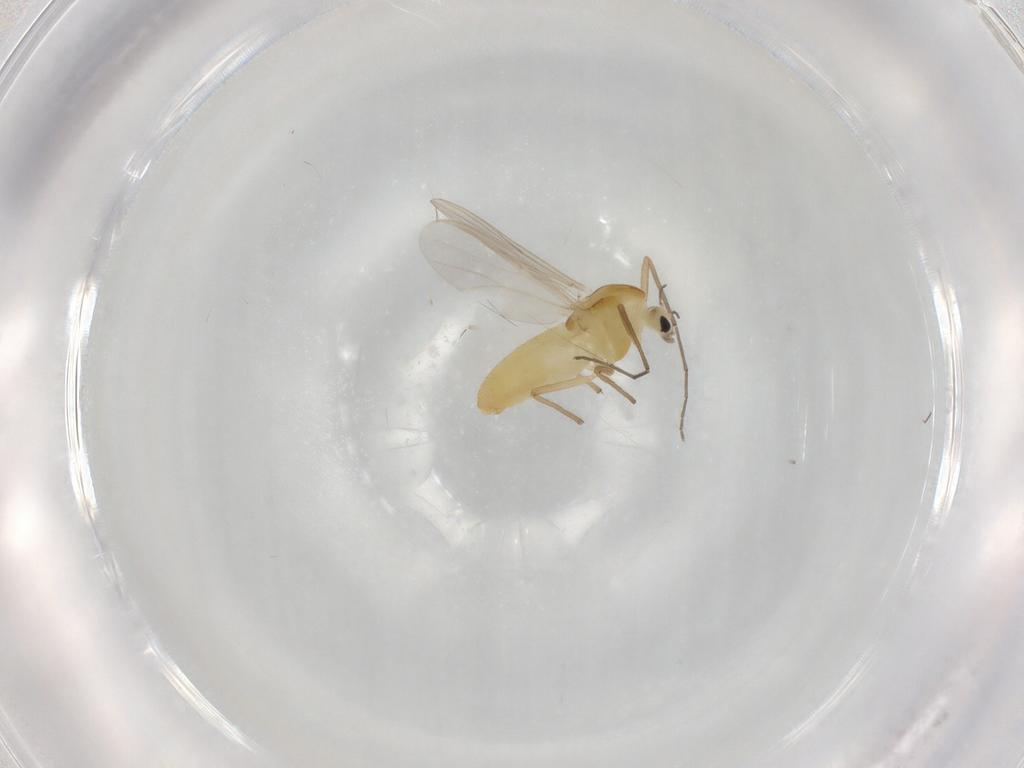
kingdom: Animalia
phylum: Arthropoda
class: Insecta
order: Diptera
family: Chironomidae
